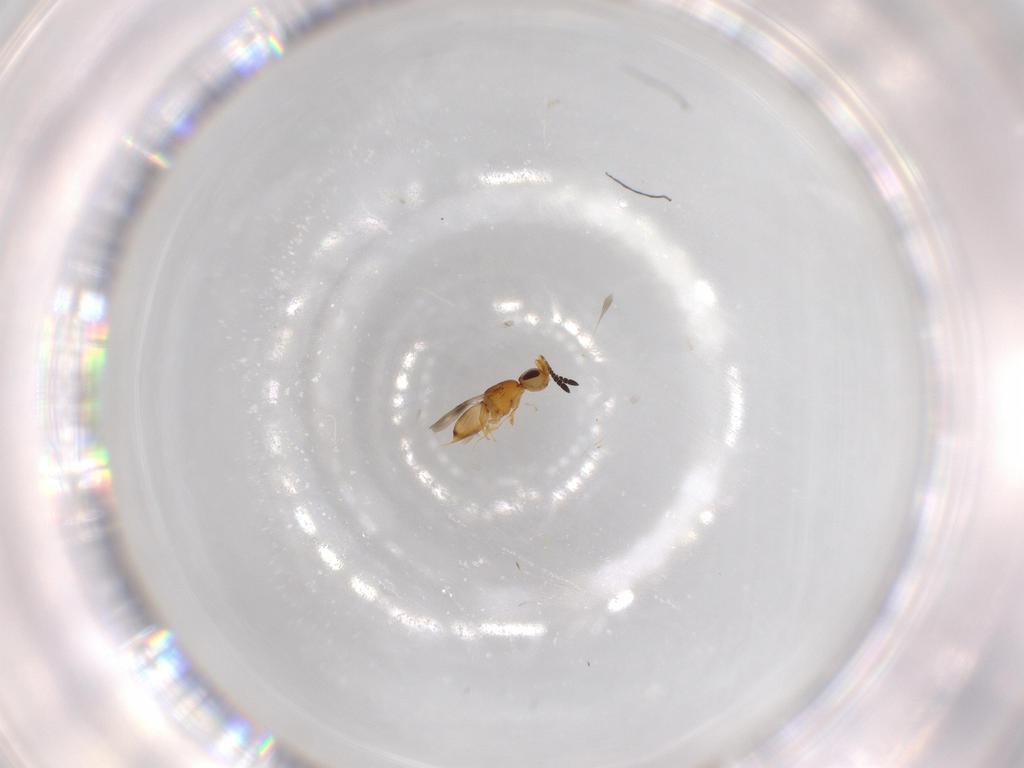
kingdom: Animalia
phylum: Arthropoda
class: Insecta
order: Hymenoptera
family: Ceraphronidae
